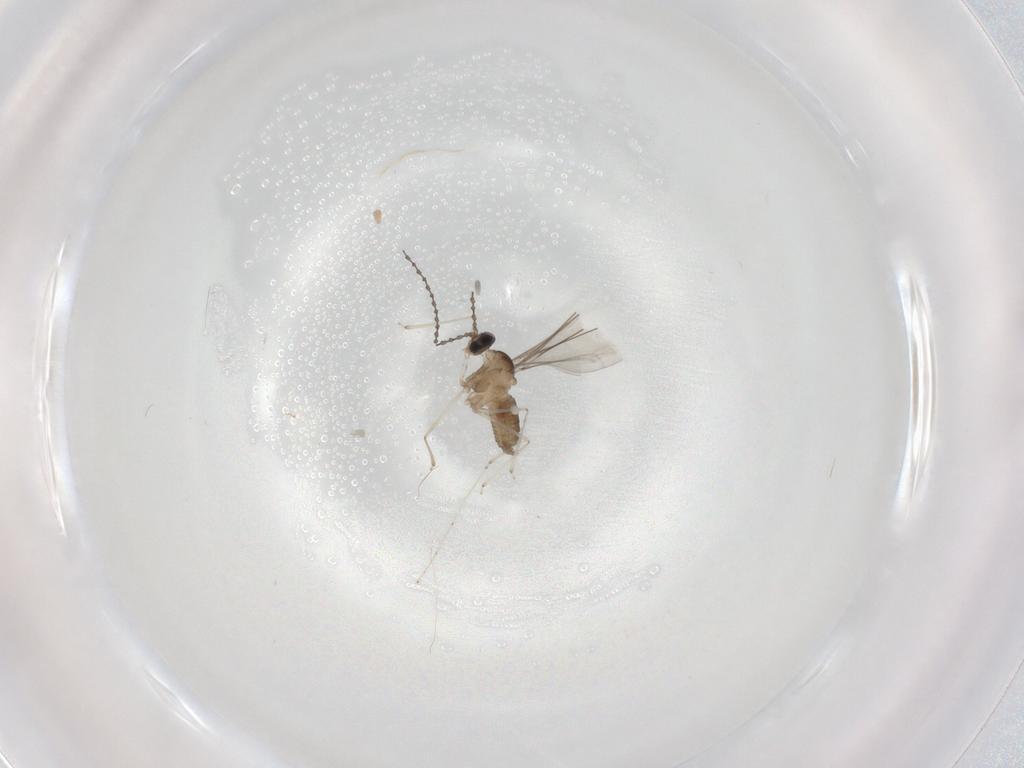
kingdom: Animalia
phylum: Arthropoda
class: Insecta
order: Diptera
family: Cecidomyiidae
